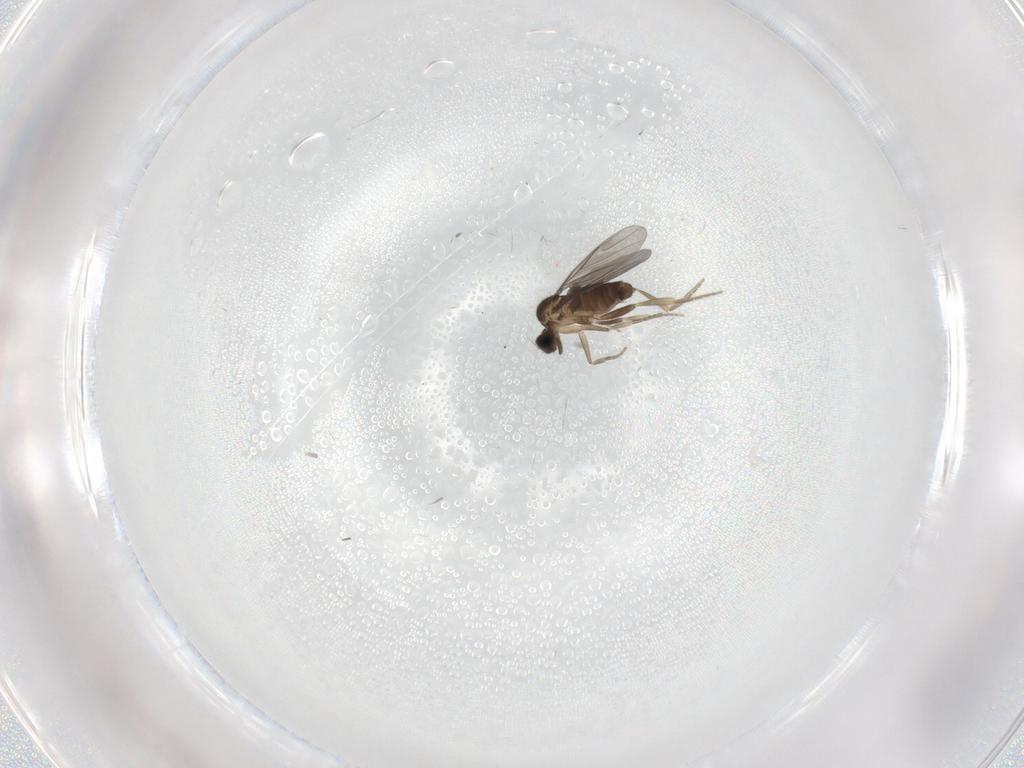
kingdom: Animalia
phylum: Arthropoda
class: Insecta
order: Diptera
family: Cecidomyiidae
